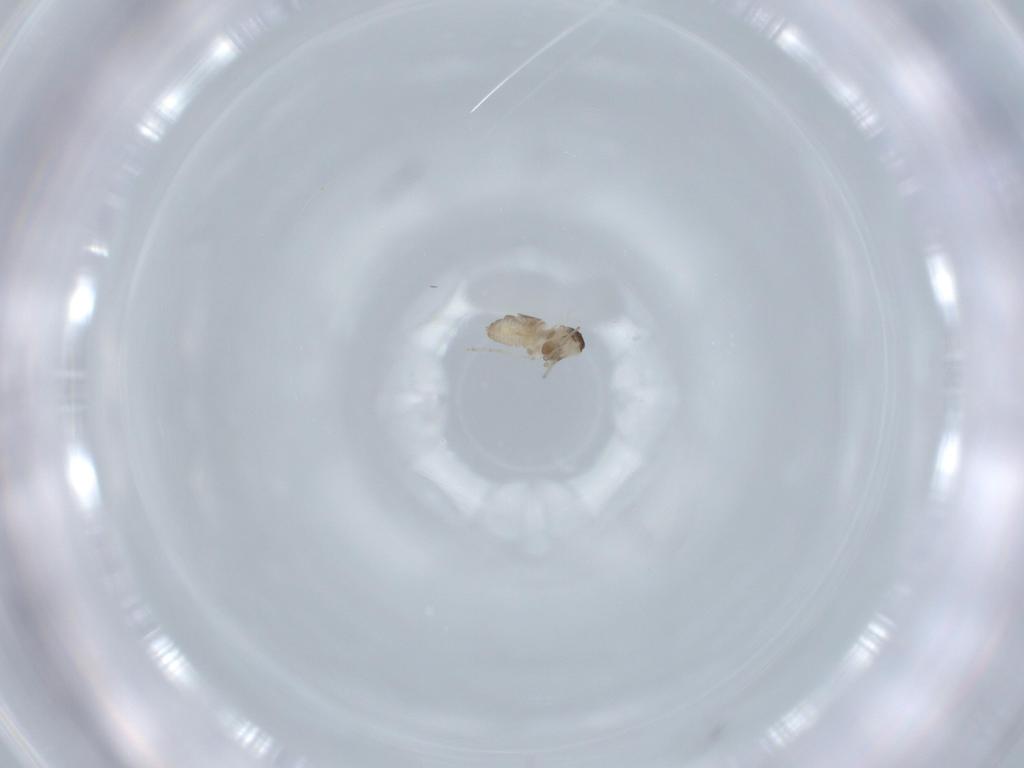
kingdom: Animalia
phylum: Arthropoda
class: Insecta
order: Diptera
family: Cecidomyiidae
